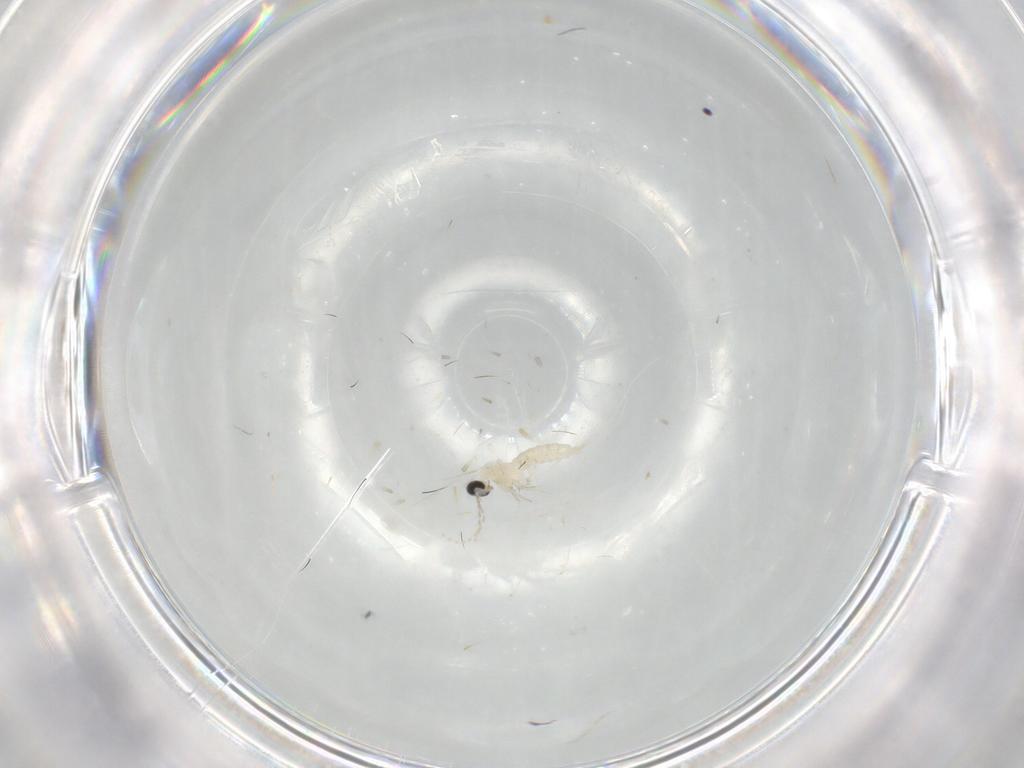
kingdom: Animalia
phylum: Arthropoda
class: Insecta
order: Diptera
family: Cecidomyiidae
